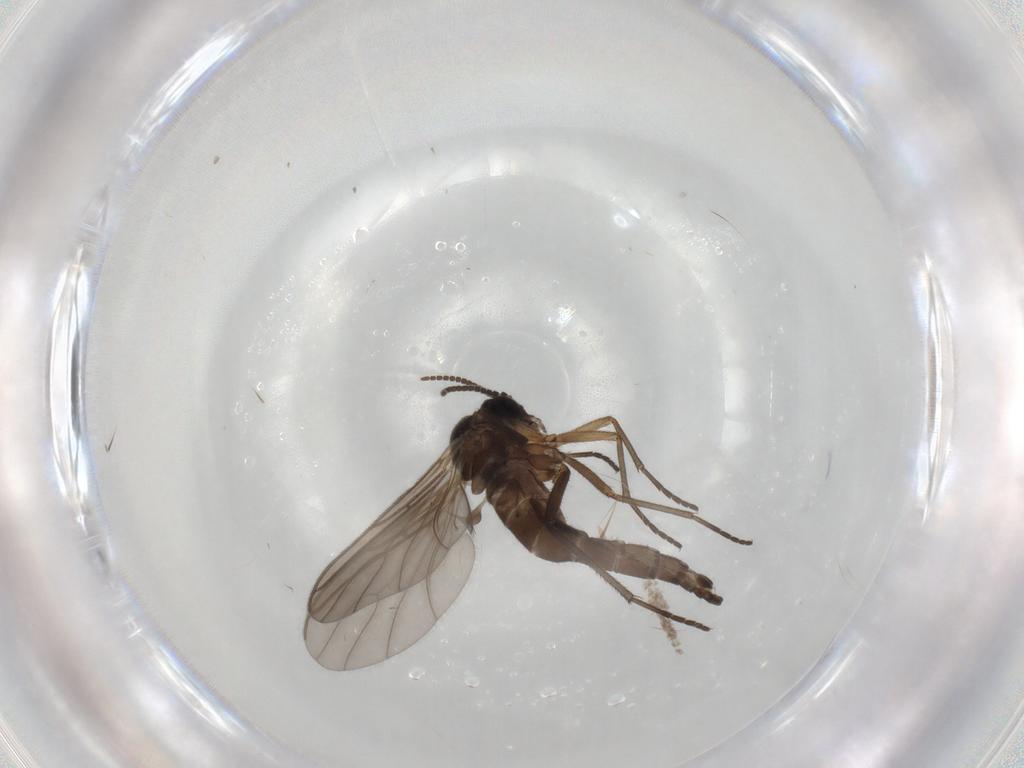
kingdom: Animalia
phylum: Arthropoda
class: Insecta
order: Diptera
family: Sciaridae
